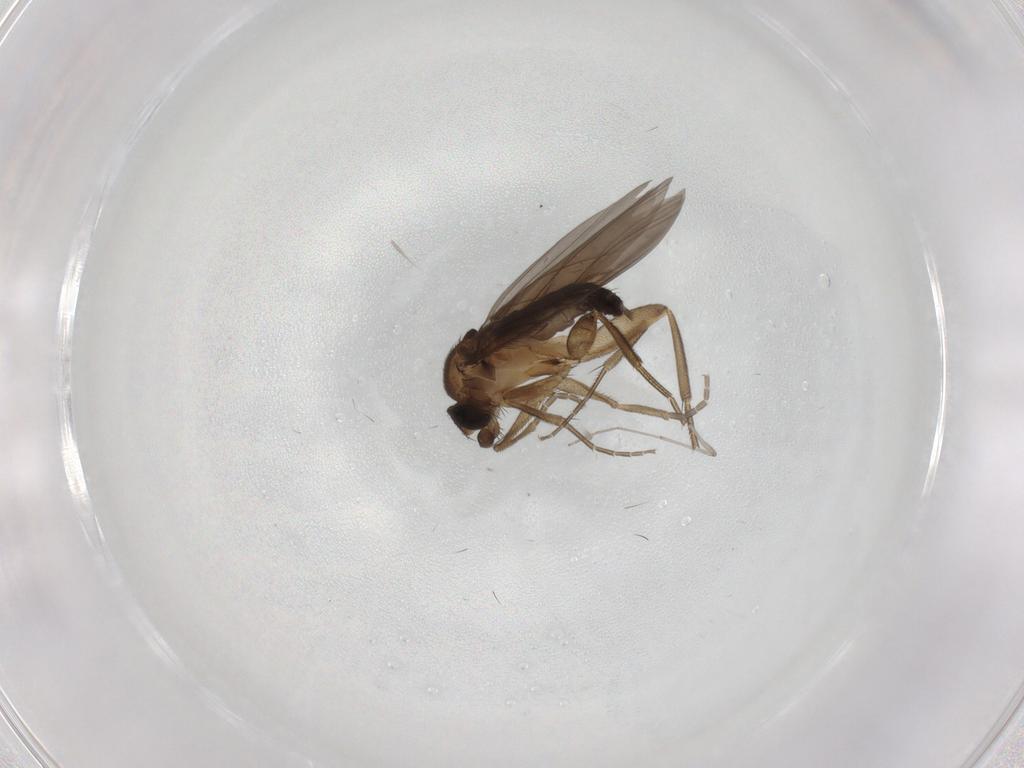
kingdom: Animalia
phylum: Arthropoda
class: Insecta
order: Diptera
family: Phoridae
